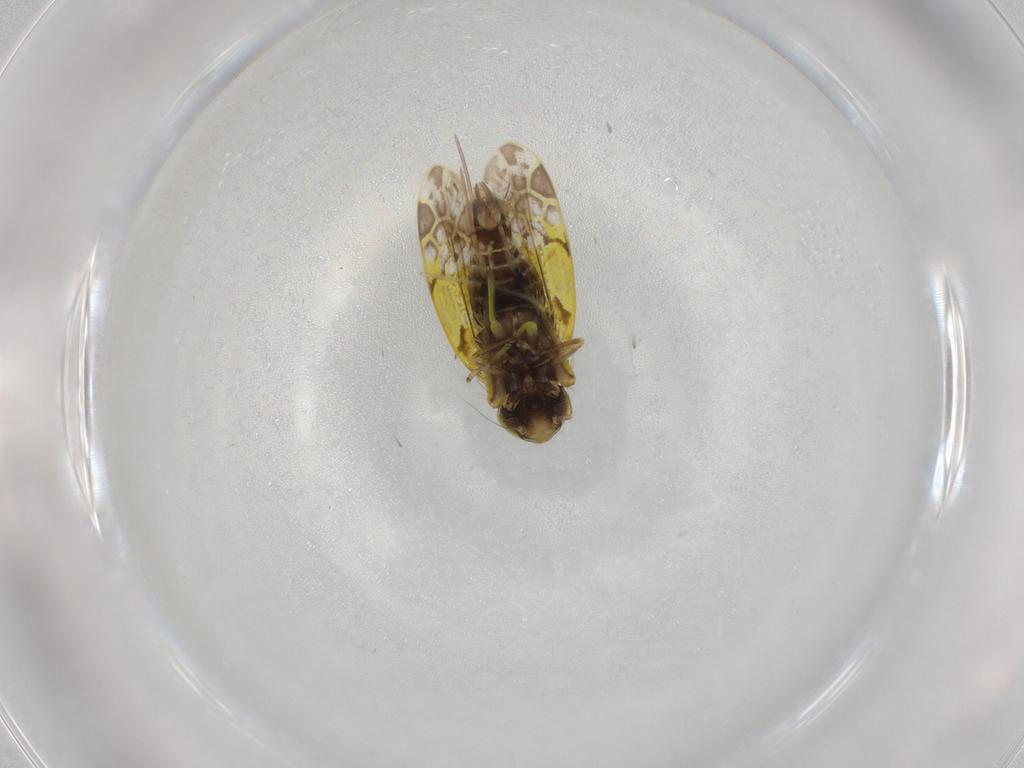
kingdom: Animalia
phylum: Arthropoda
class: Insecta
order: Hemiptera
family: Cicadellidae
